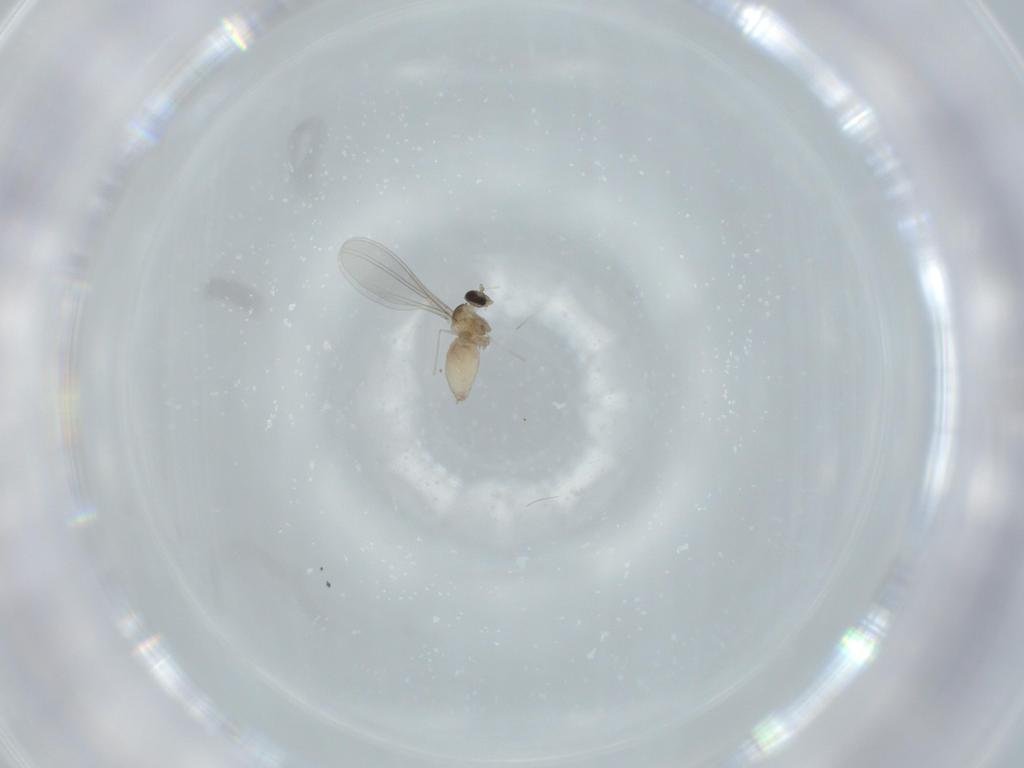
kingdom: Animalia
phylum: Arthropoda
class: Insecta
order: Diptera
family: Cecidomyiidae
